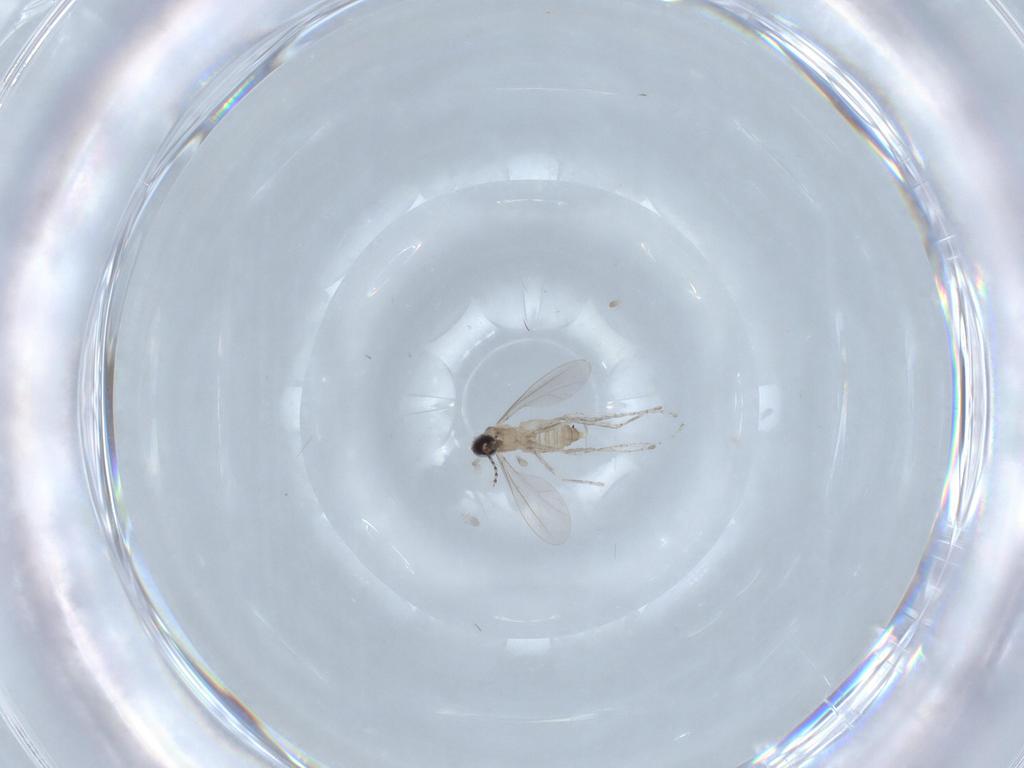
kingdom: Animalia
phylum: Arthropoda
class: Insecta
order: Diptera
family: Cecidomyiidae
